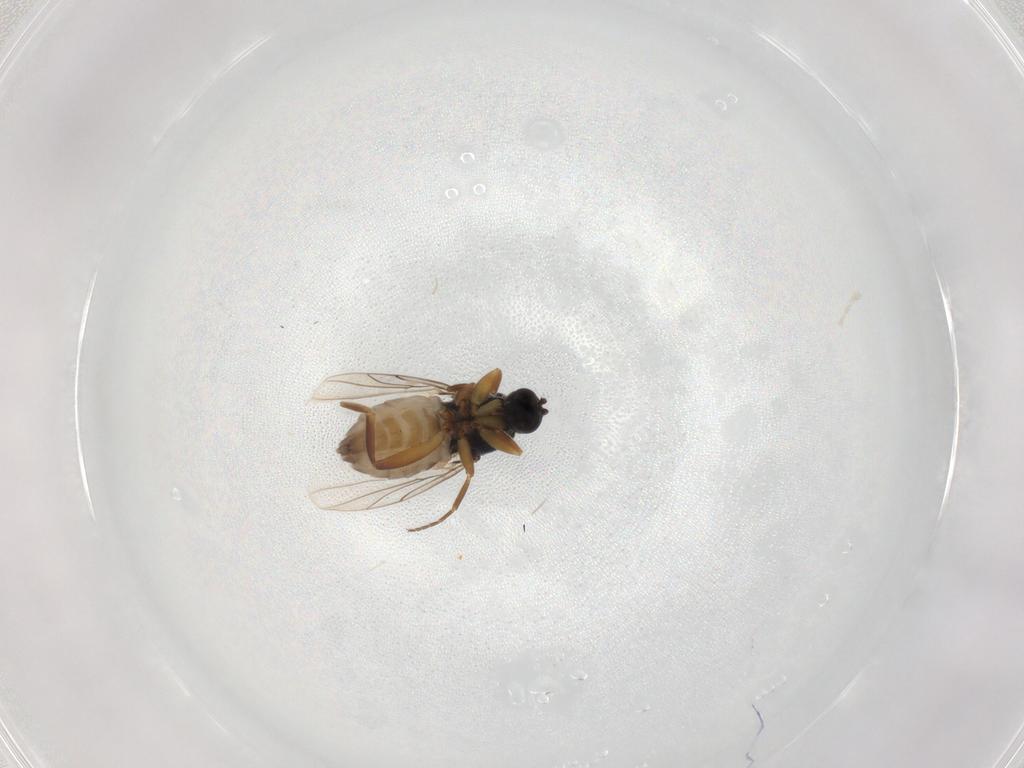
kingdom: Animalia
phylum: Arthropoda
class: Insecta
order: Diptera
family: Hybotidae
